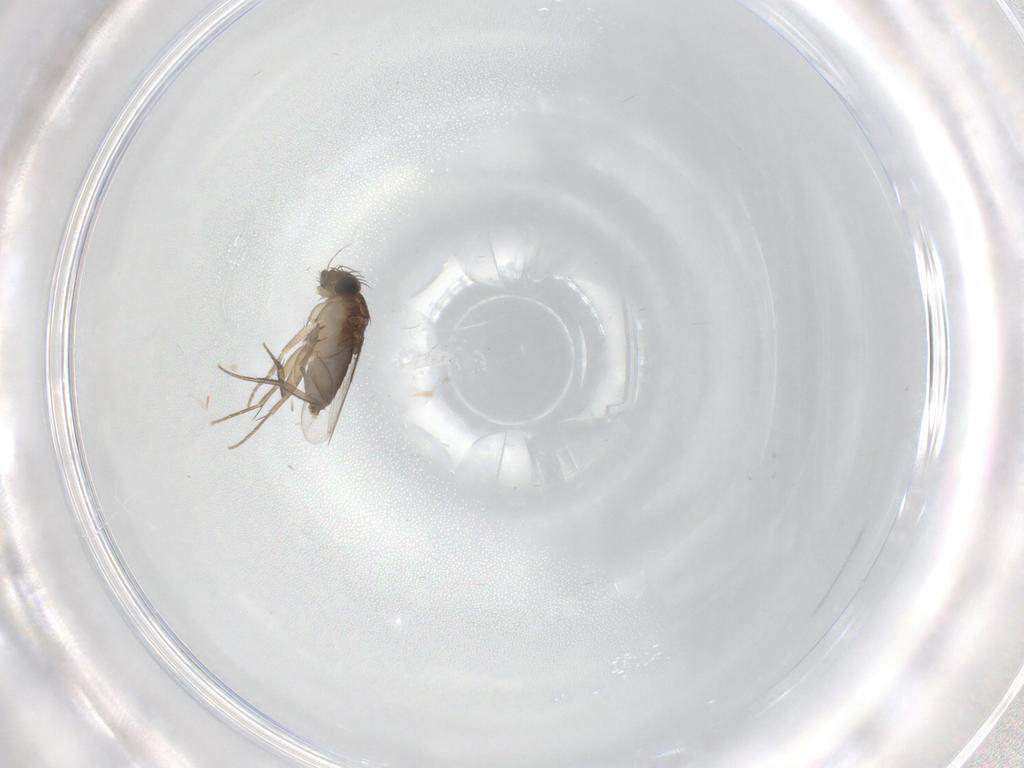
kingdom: Animalia
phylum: Arthropoda
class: Insecta
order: Diptera
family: Phoridae
